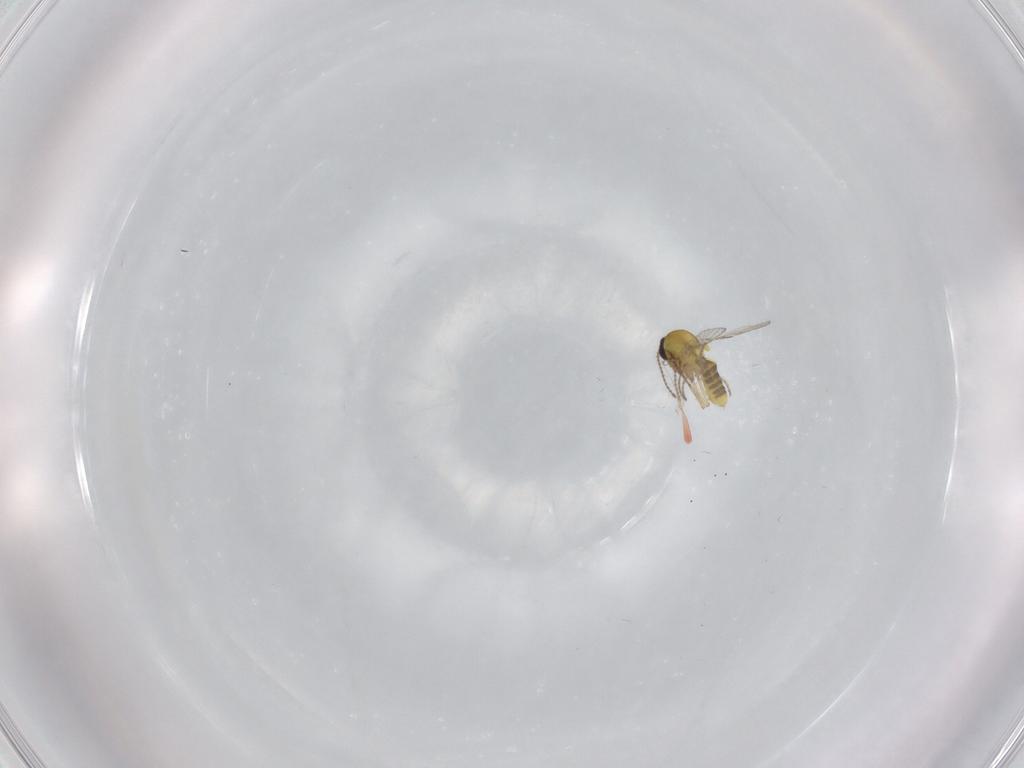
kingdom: Animalia
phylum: Arthropoda
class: Insecta
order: Diptera
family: Ceratopogonidae
